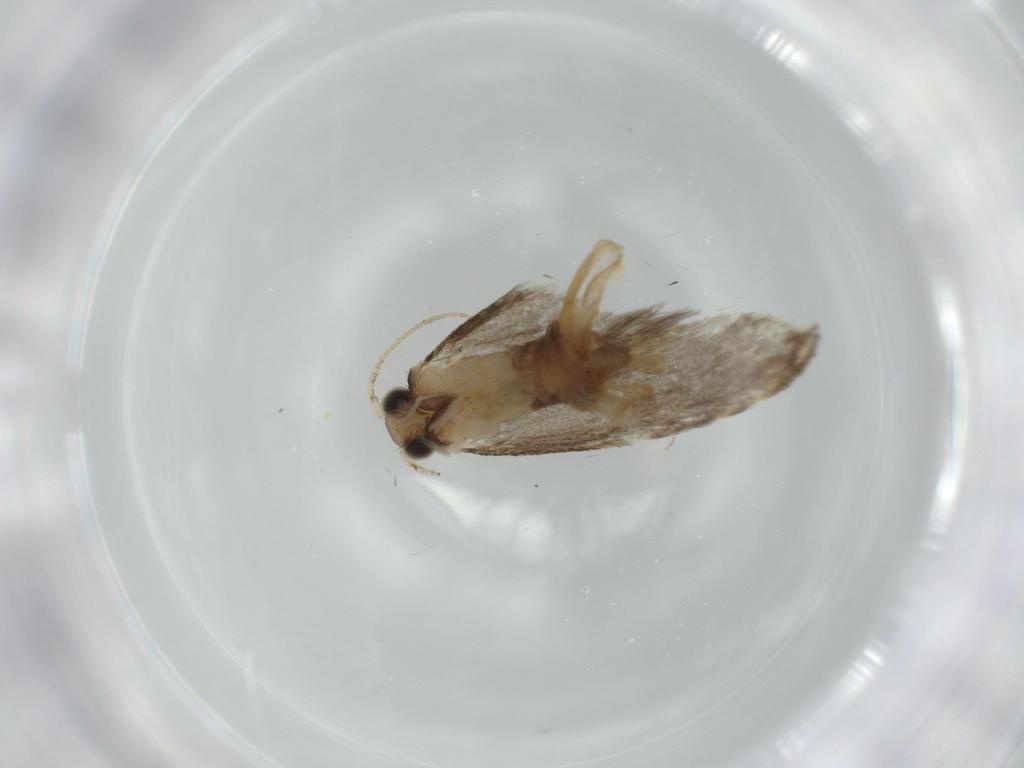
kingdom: Animalia
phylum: Arthropoda
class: Insecta
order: Lepidoptera
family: Tineidae
